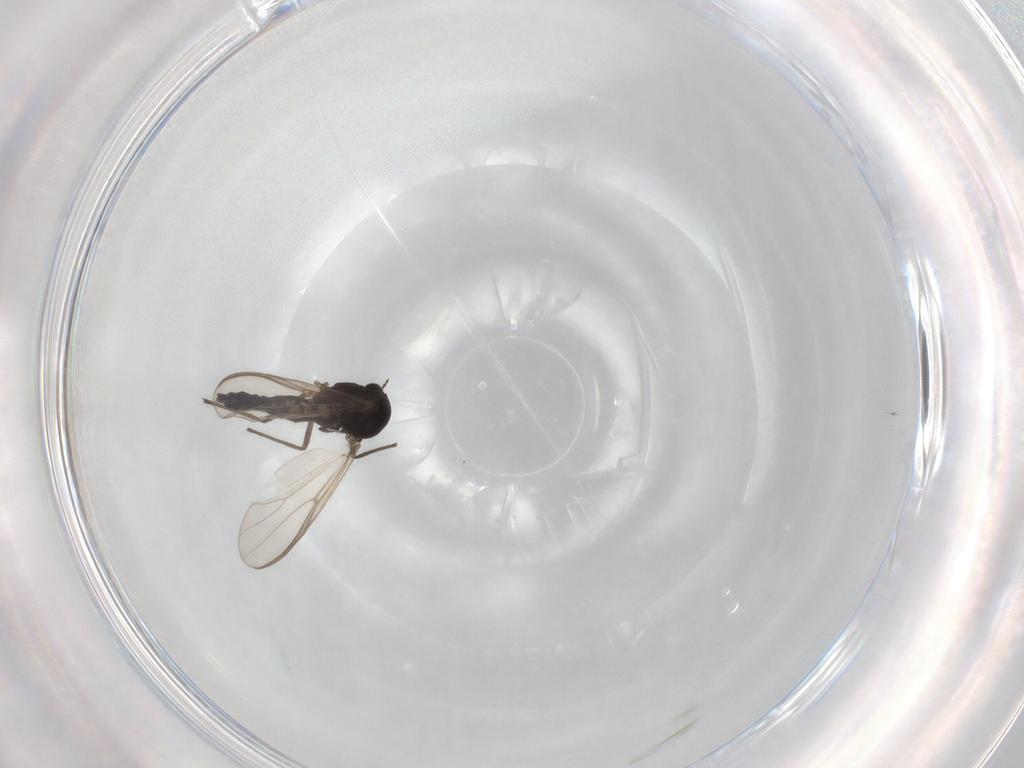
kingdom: Animalia
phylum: Arthropoda
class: Insecta
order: Diptera
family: Chironomidae
